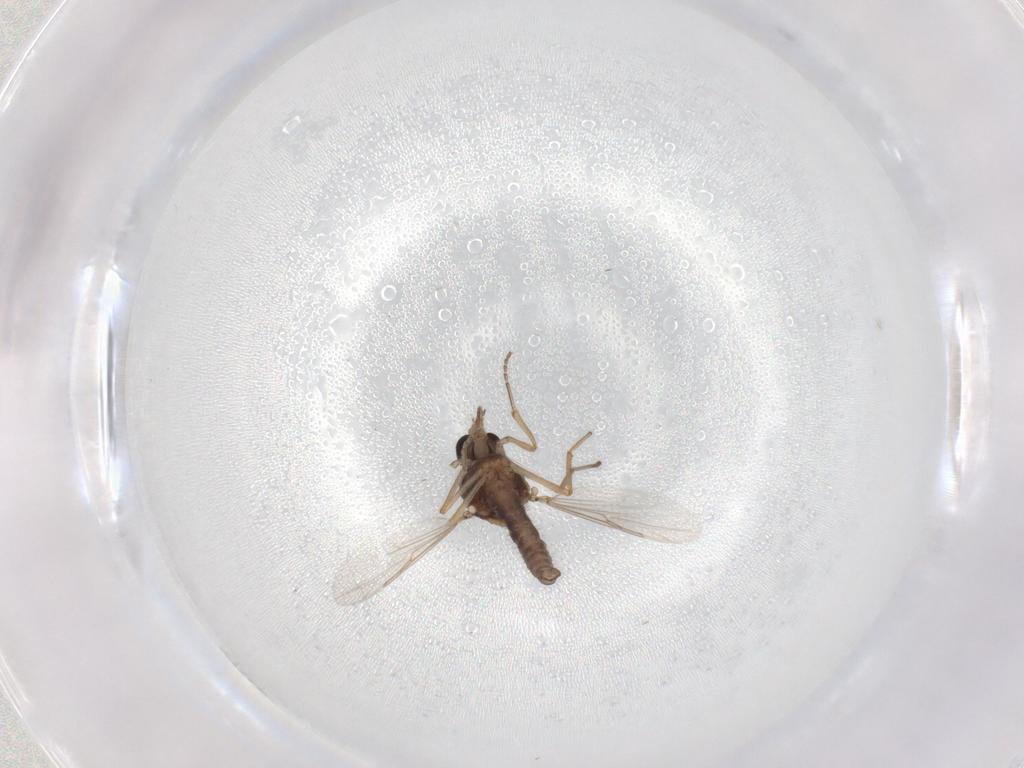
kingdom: Animalia
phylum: Arthropoda
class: Insecta
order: Diptera
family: Ceratopogonidae
